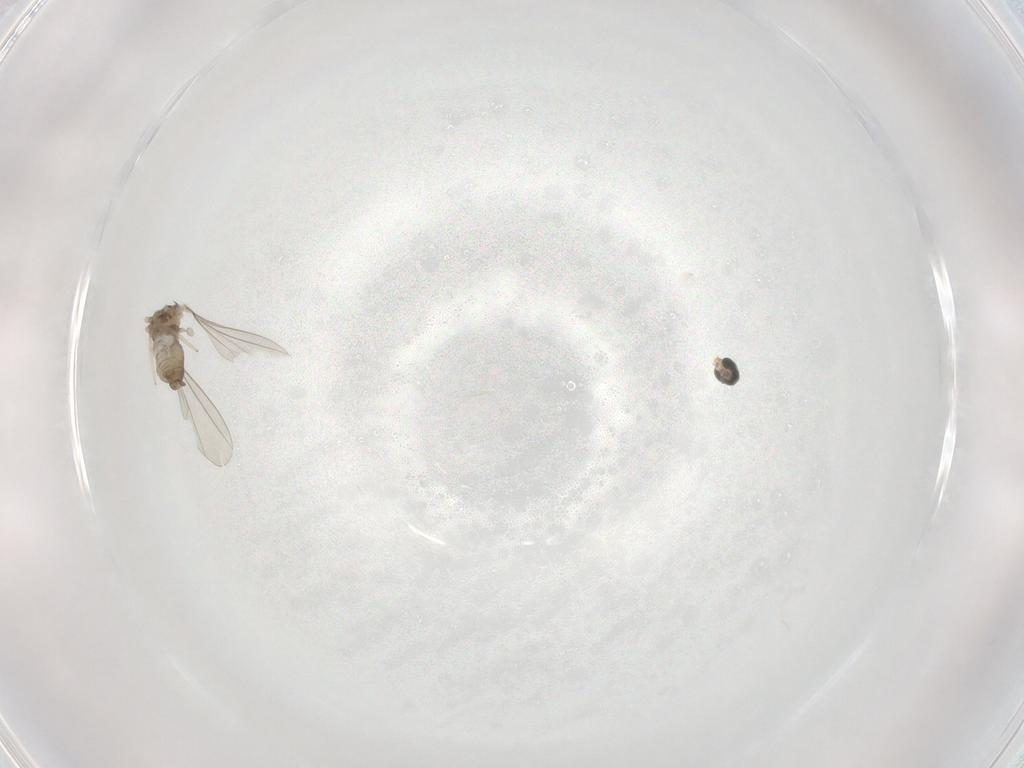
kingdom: Animalia
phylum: Arthropoda
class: Insecta
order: Diptera
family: Cecidomyiidae
